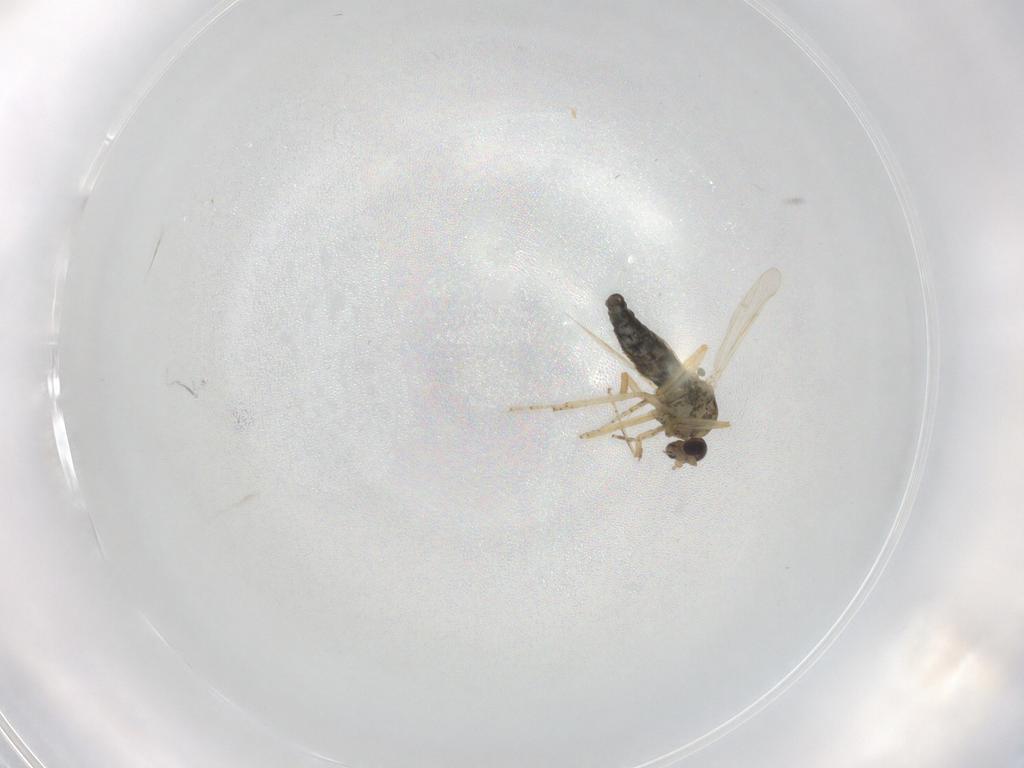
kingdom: Animalia
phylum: Arthropoda
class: Insecta
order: Diptera
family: Ceratopogonidae
